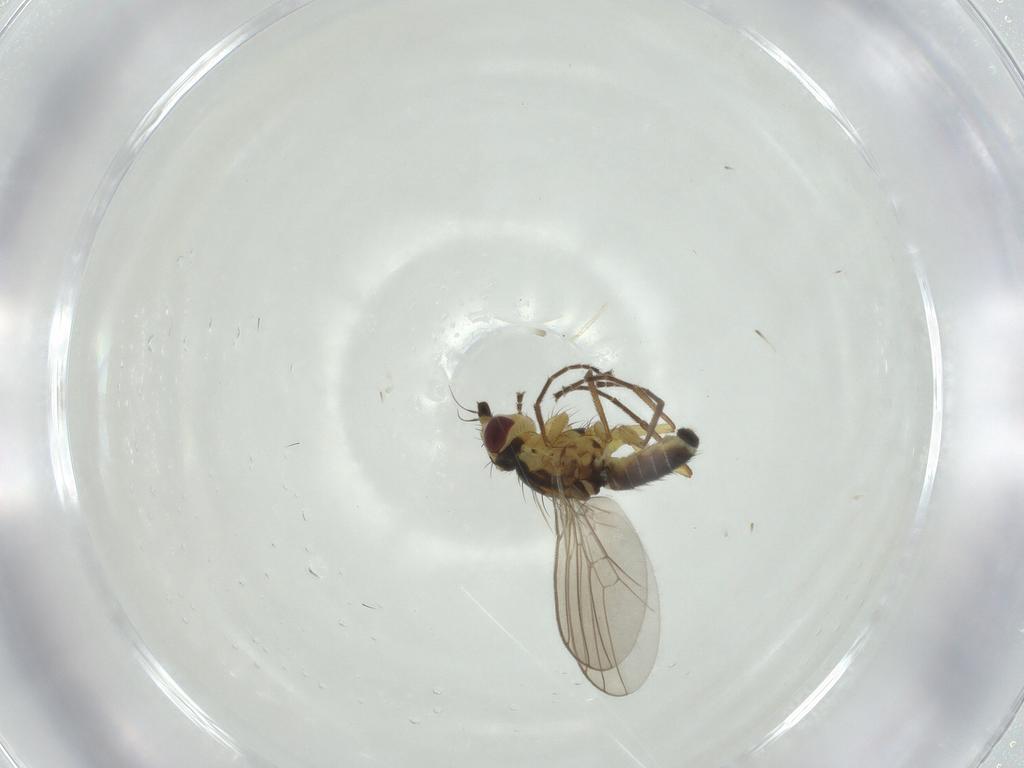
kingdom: Animalia
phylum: Arthropoda
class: Insecta
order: Diptera
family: Agromyzidae
